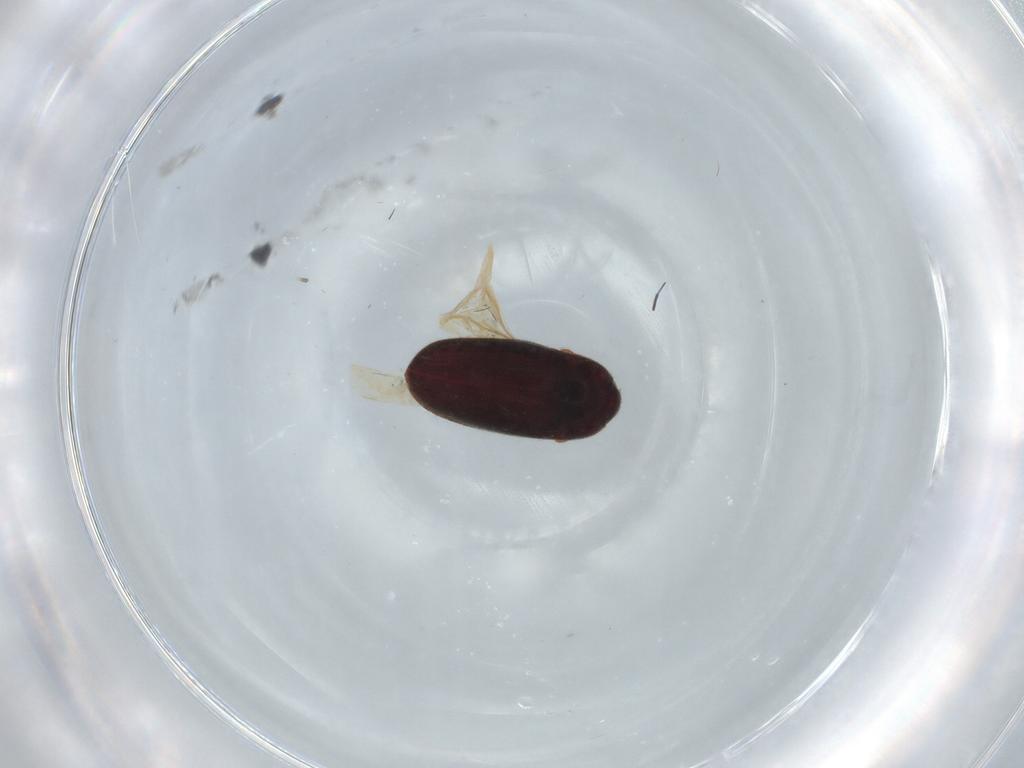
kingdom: Animalia
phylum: Arthropoda
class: Insecta
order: Coleoptera
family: Throscidae
